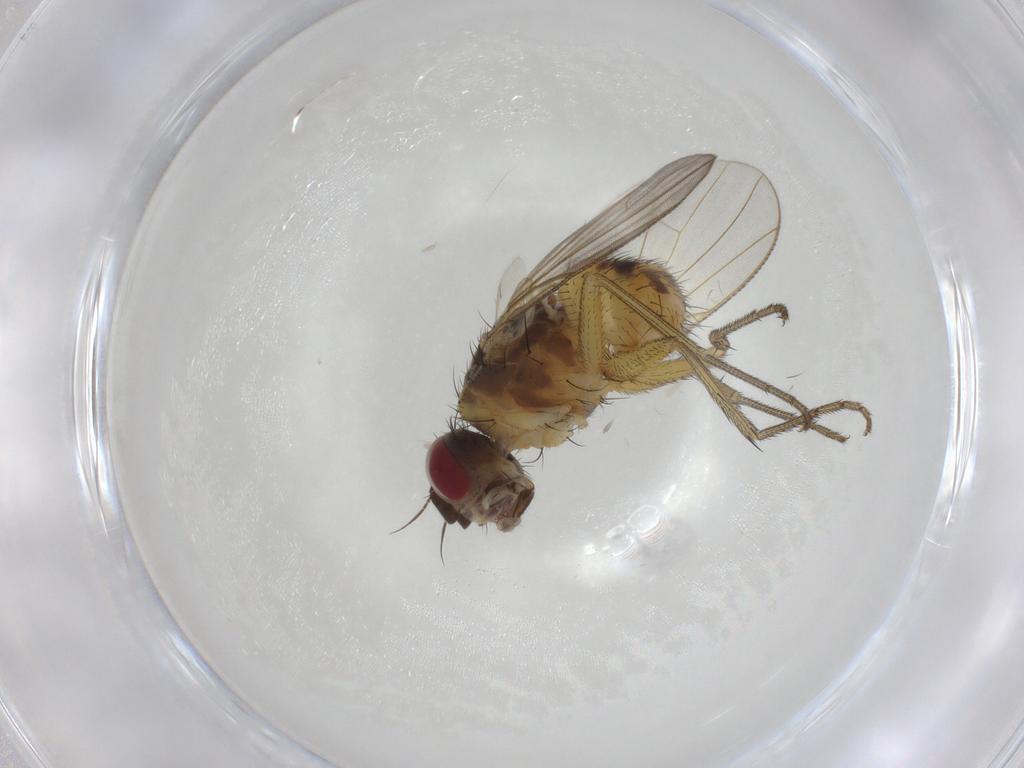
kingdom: Animalia
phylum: Arthropoda
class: Insecta
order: Diptera
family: Muscidae
